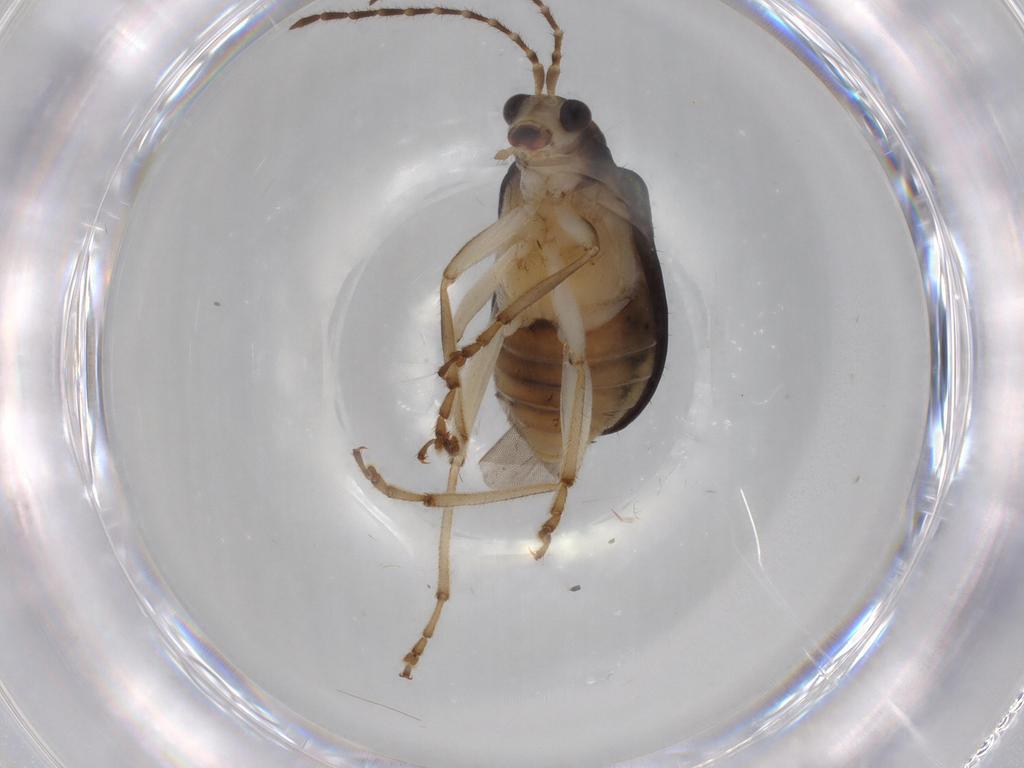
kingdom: Animalia
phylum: Arthropoda
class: Insecta
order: Coleoptera
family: Chrysomelidae
